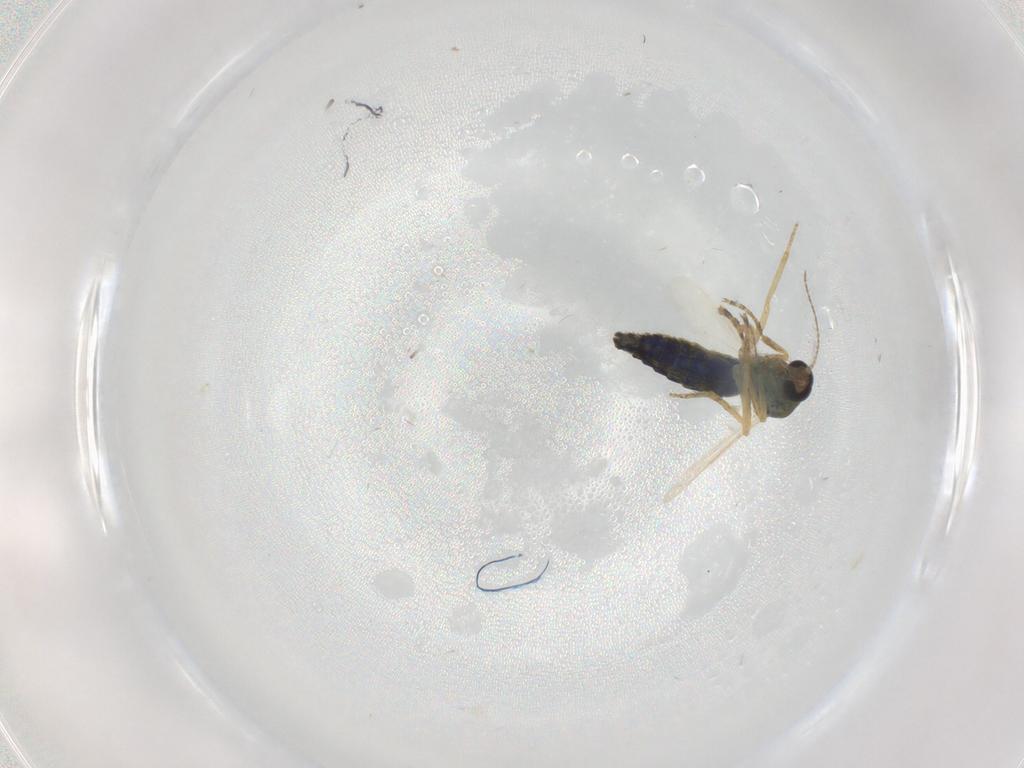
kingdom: Animalia
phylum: Arthropoda
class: Insecta
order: Diptera
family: Ceratopogonidae
